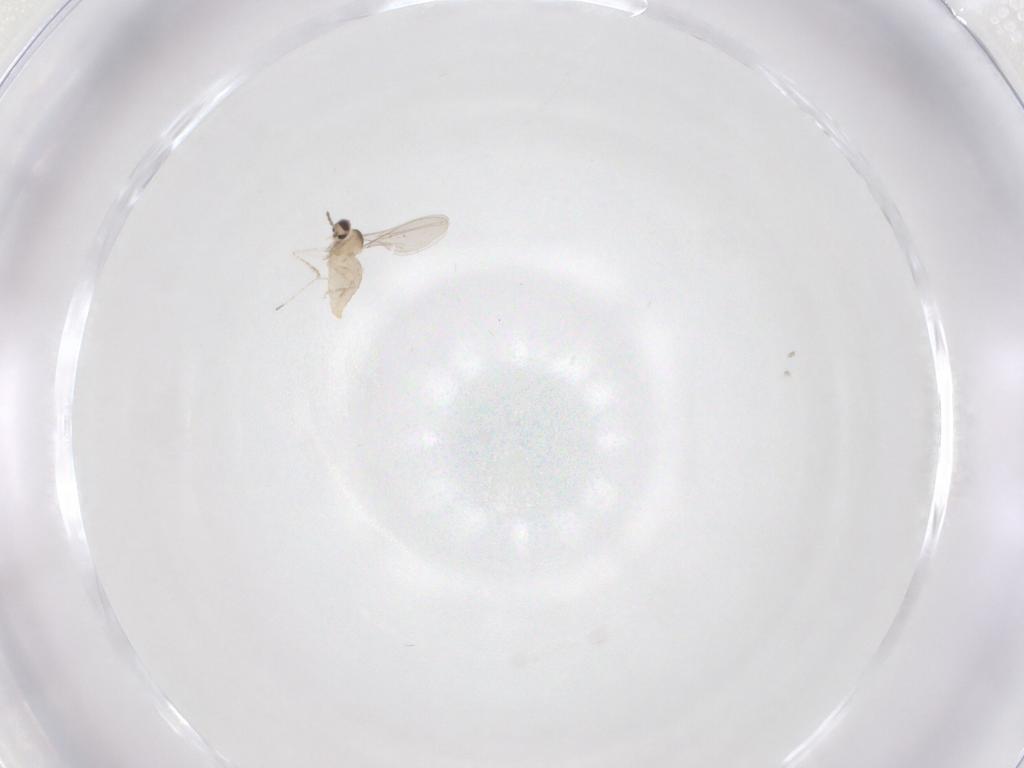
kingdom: Animalia
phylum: Arthropoda
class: Insecta
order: Diptera
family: Cecidomyiidae
